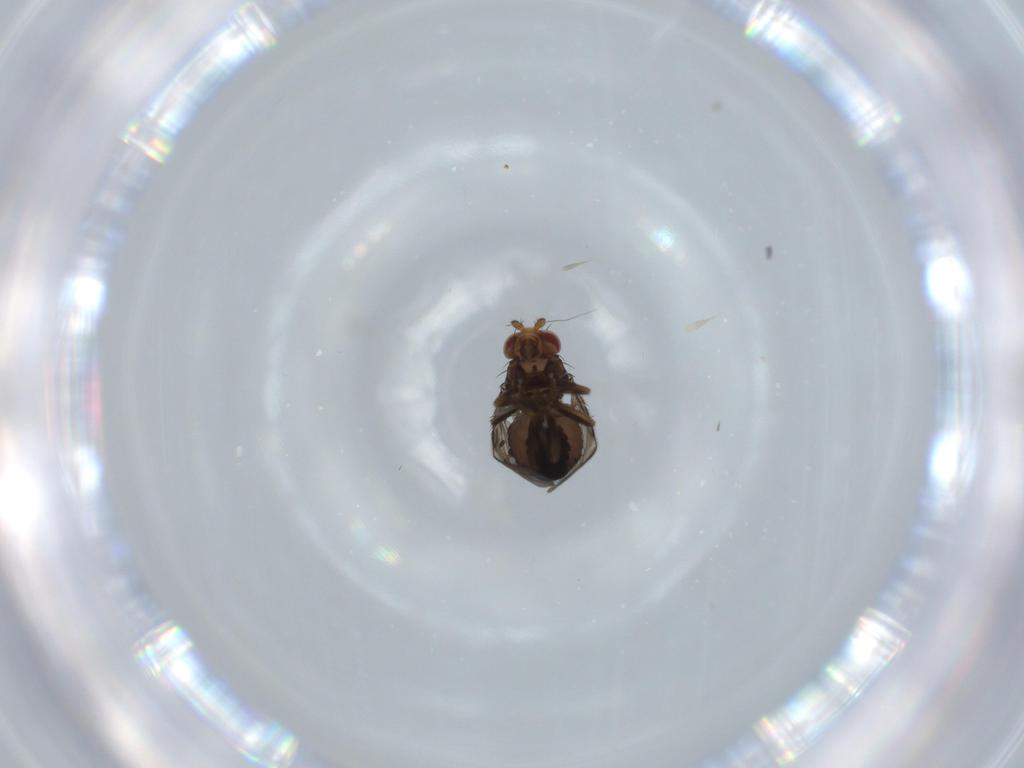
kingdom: Animalia
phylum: Arthropoda
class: Insecta
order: Diptera
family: Sphaeroceridae
